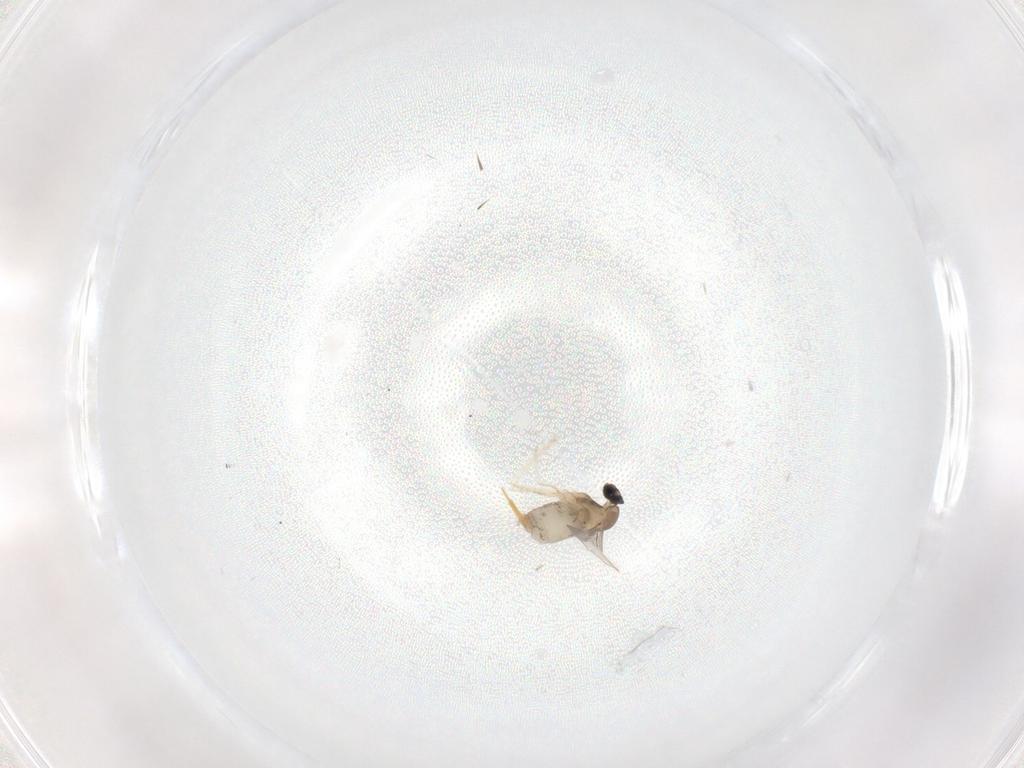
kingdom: Animalia
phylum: Arthropoda
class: Insecta
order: Diptera
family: Cecidomyiidae
